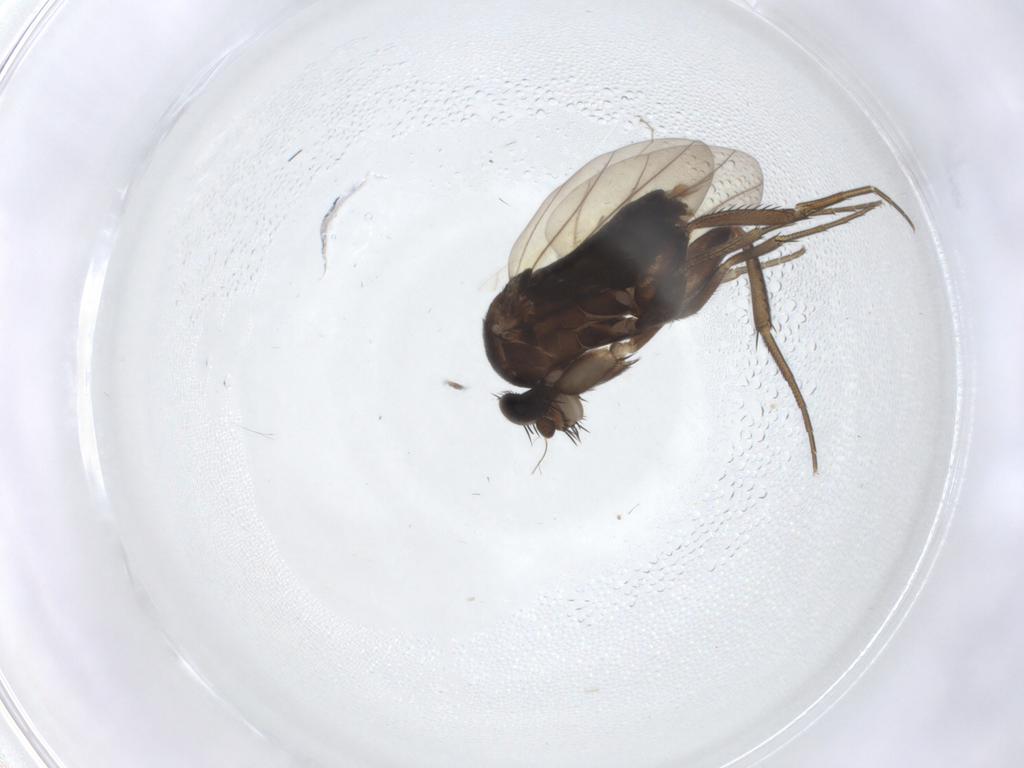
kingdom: Animalia
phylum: Arthropoda
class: Insecta
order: Diptera
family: Phoridae
